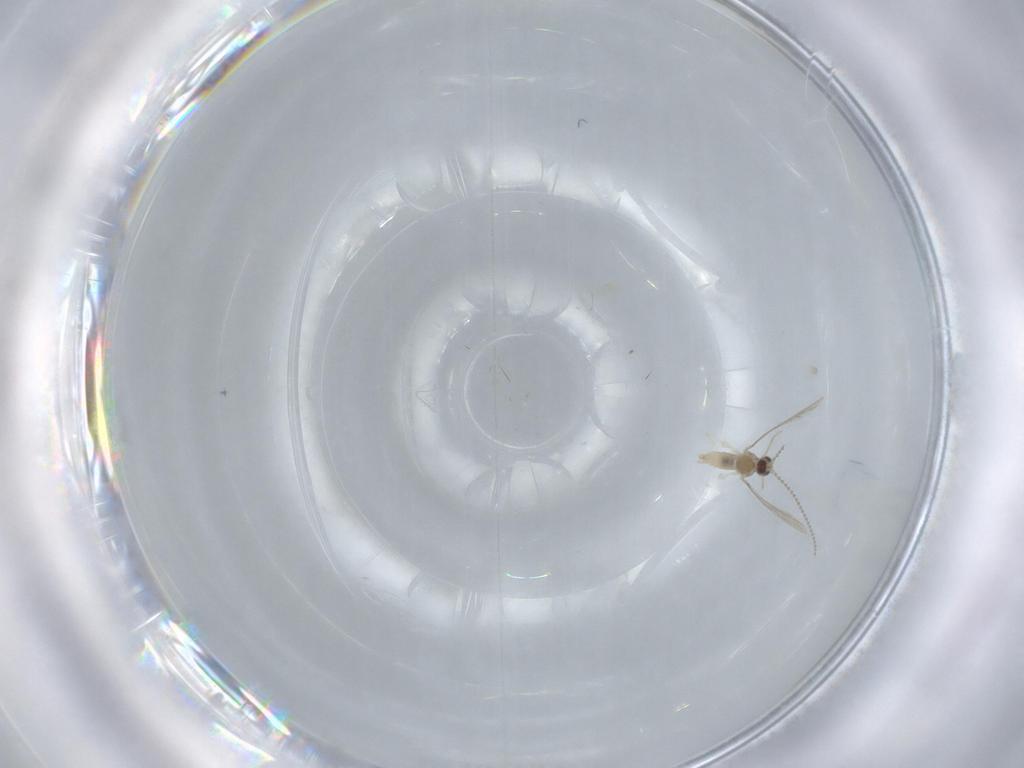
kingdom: Animalia
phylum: Arthropoda
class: Insecta
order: Diptera
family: Cecidomyiidae
